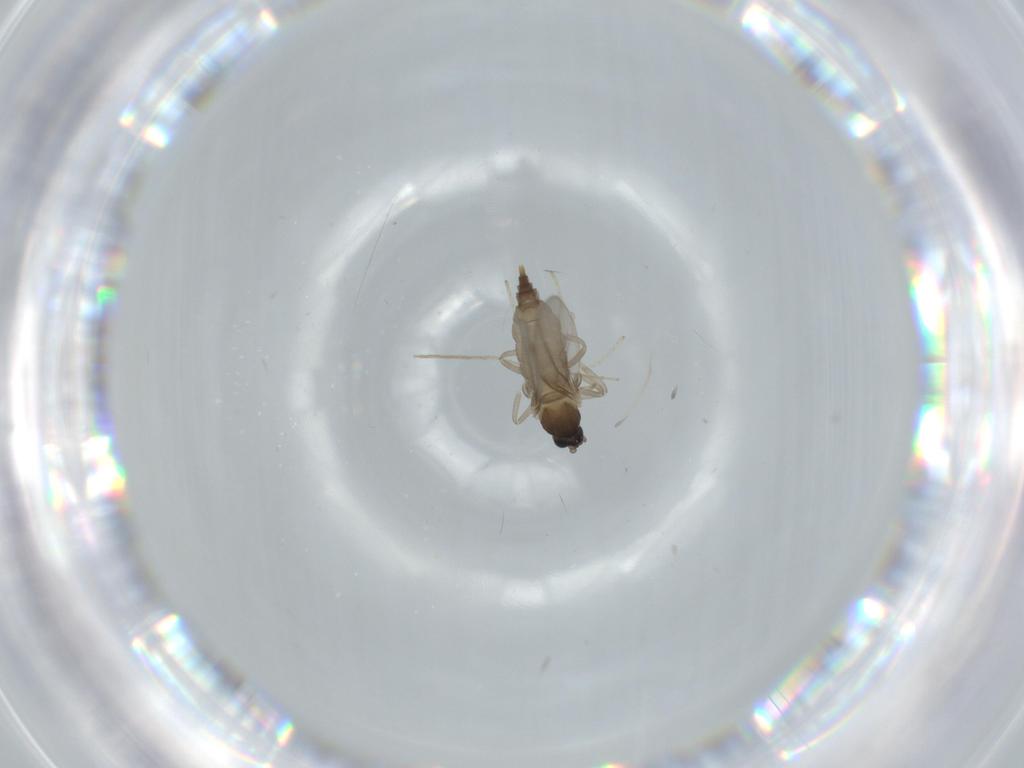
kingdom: Animalia
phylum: Arthropoda
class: Insecta
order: Diptera
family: Cecidomyiidae
